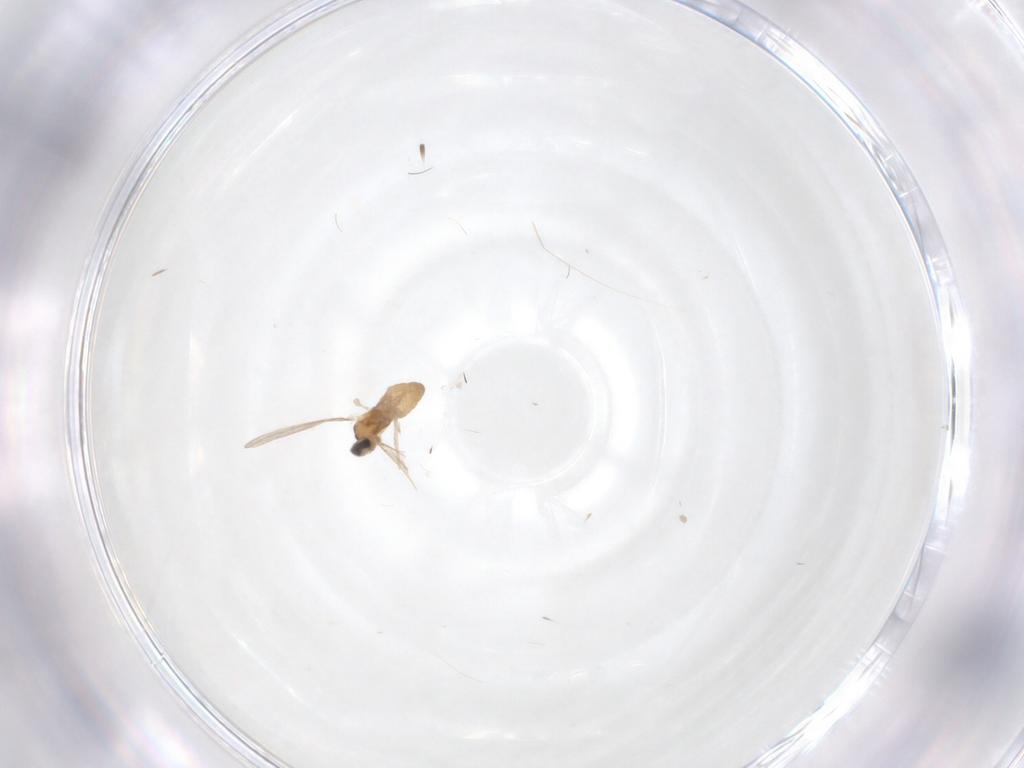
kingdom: Animalia
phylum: Arthropoda
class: Insecta
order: Diptera
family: Cecidomyiidae
